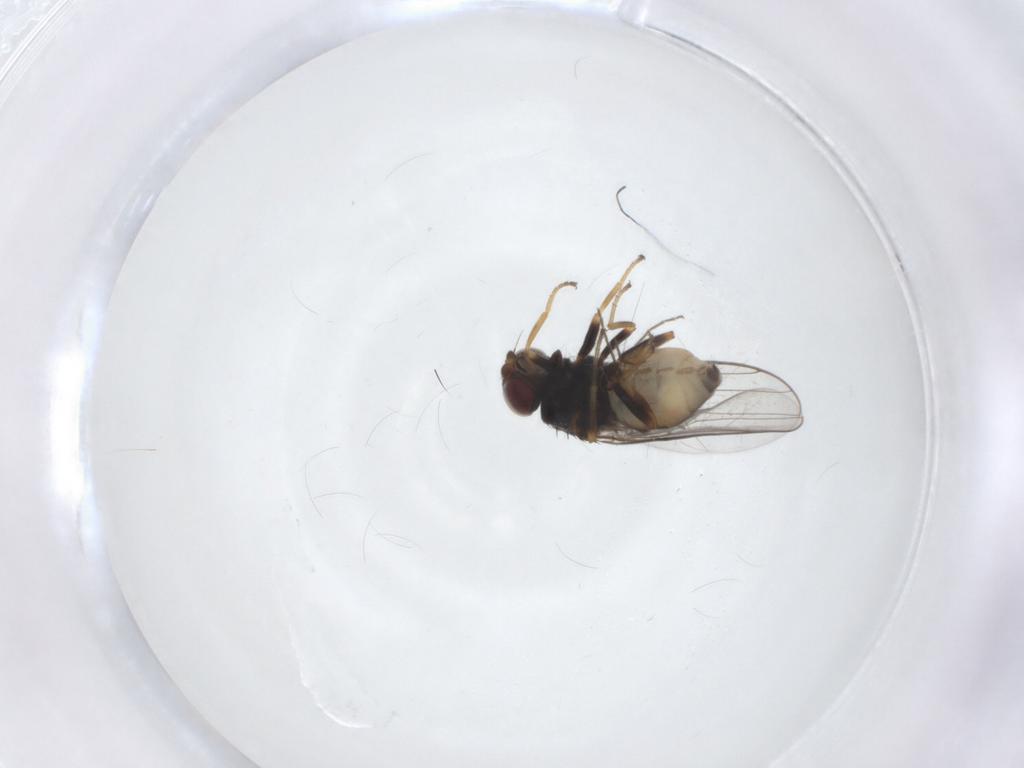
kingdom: Animalia
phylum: Arthropoda
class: Insecta
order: Diptera
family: Chloropidae
